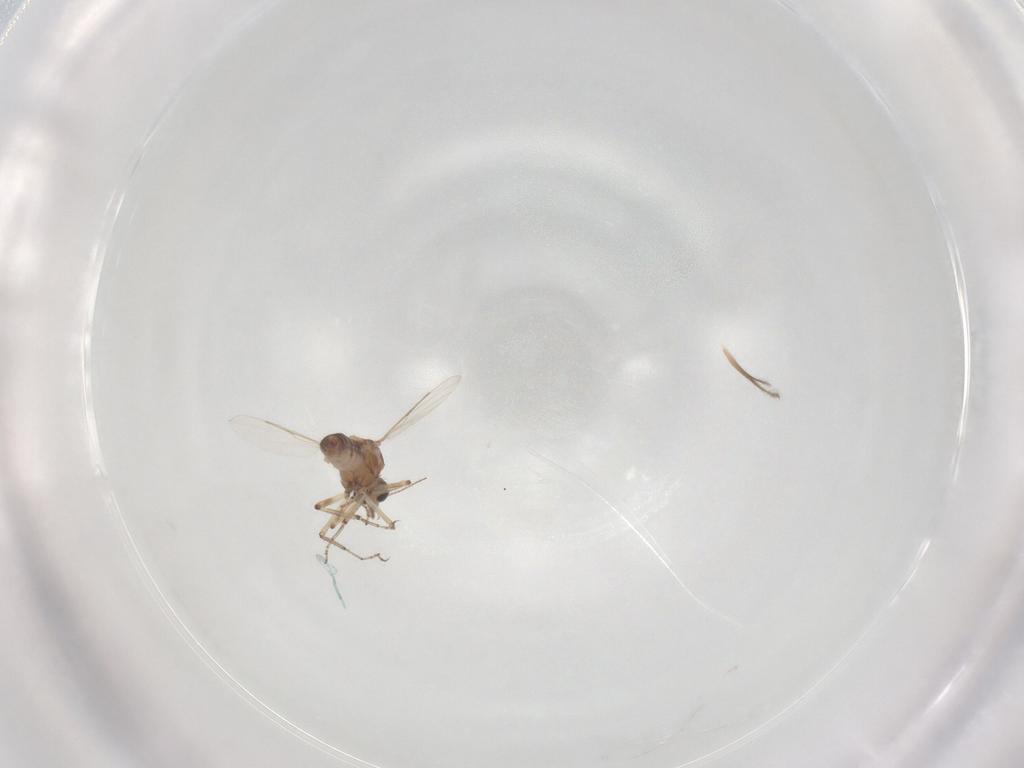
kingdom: Animalia
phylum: Arthropoda
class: Insecta
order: Diptera
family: Ceratopogonidae
